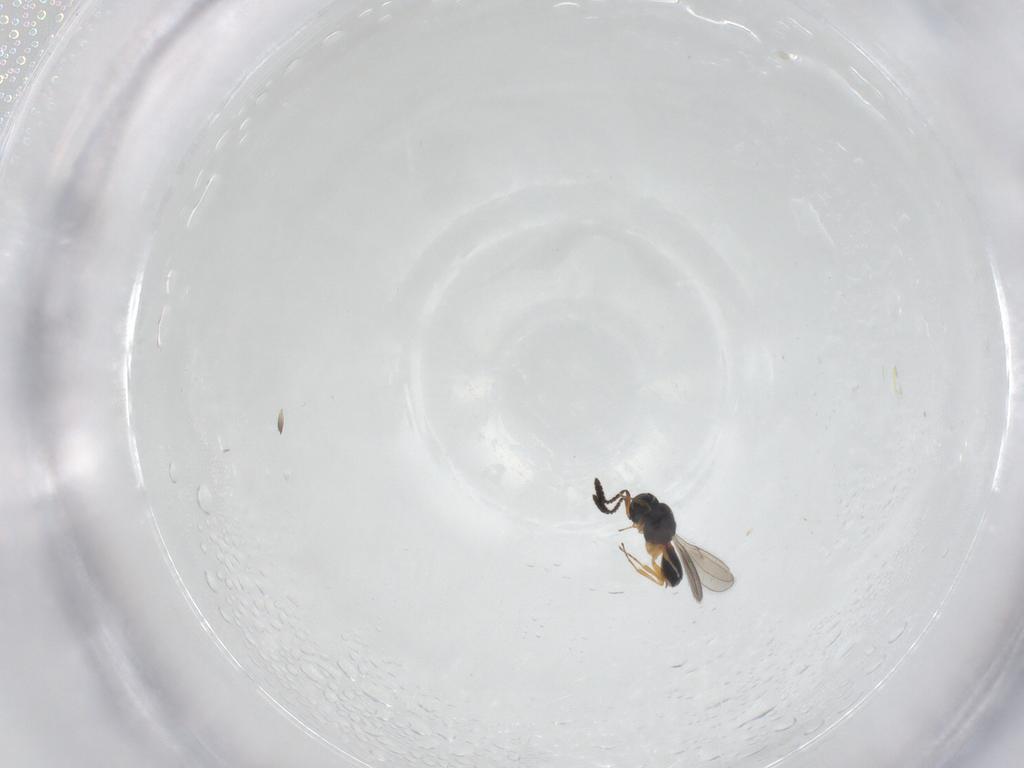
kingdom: Animalia
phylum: Arthropoda
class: Insecta
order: Hymenoptera
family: Scelionidae
